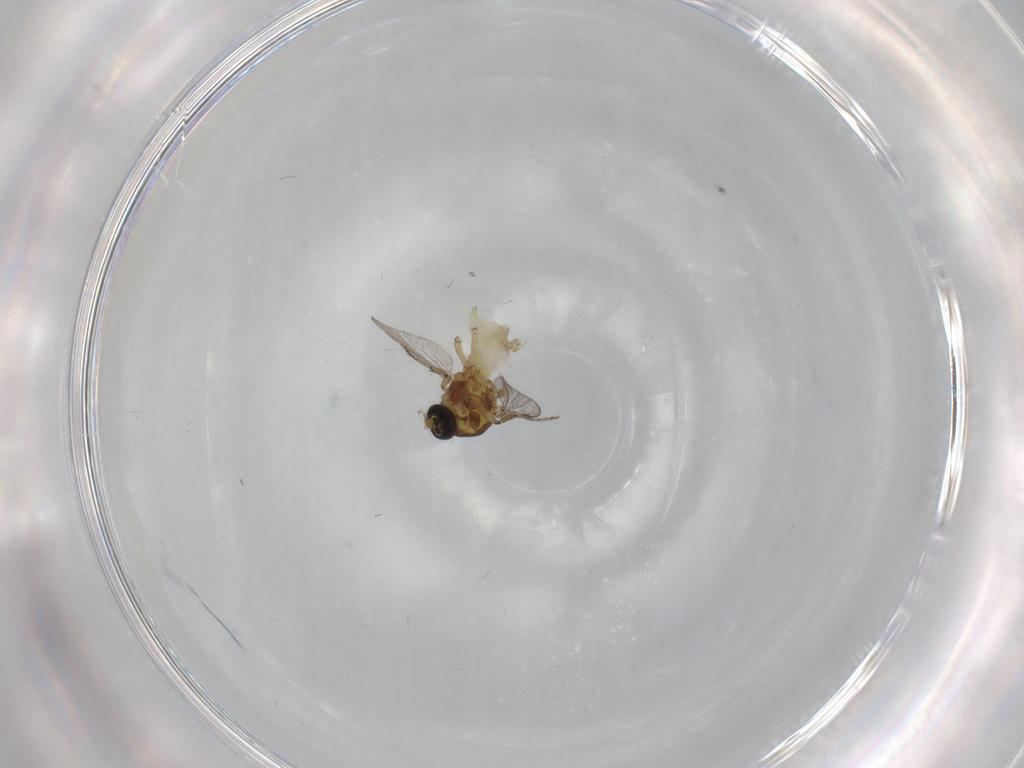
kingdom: Animalia
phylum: Arthropoda
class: Insecta
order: Diptera
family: Ceratopogonidae
